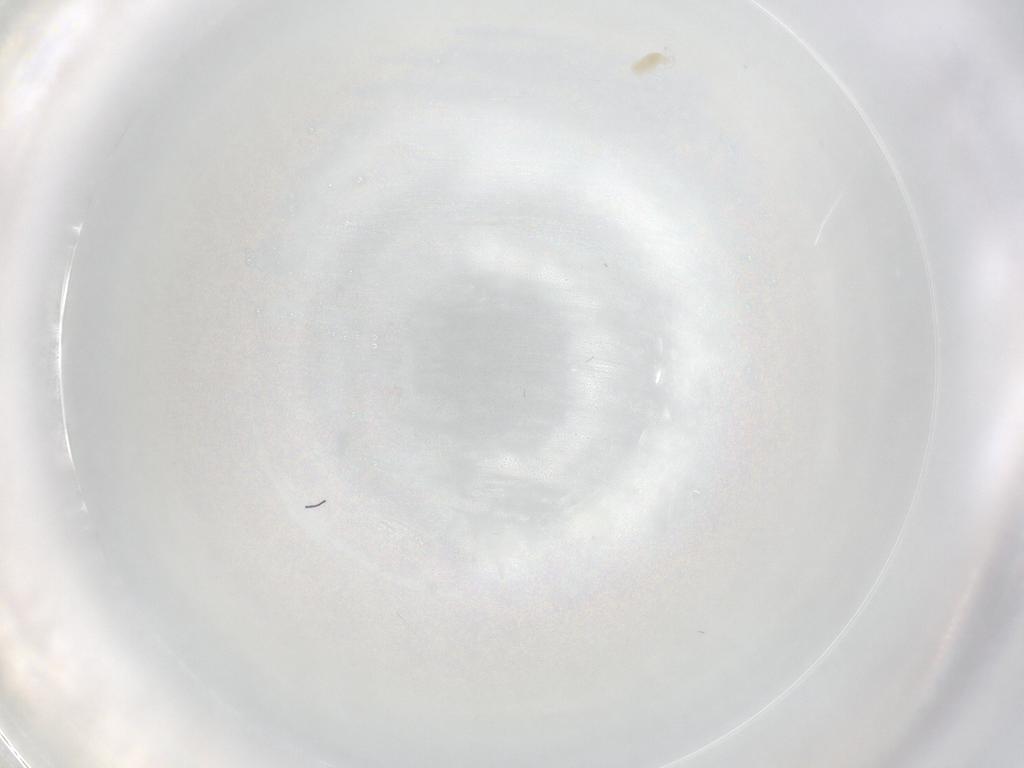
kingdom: Animalia
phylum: Arthropoda
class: Arachnida
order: Trombidiformes
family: Eupodidae
